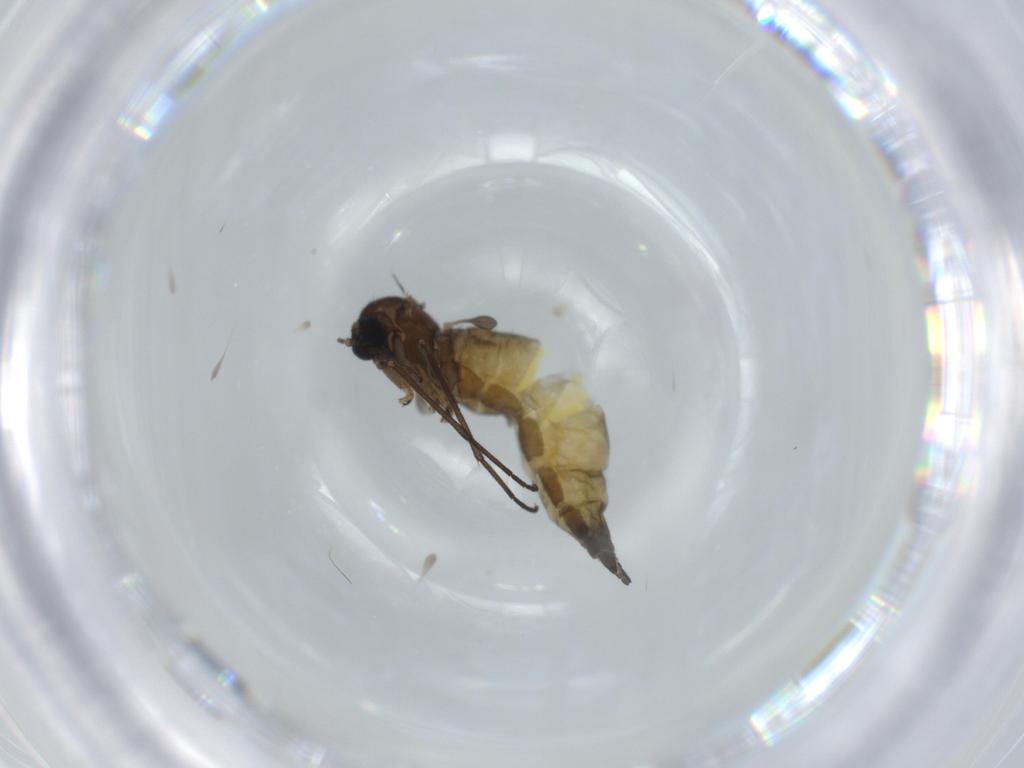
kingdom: Animalia
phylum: Arthropoda
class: Insecta
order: Diptera
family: Sciaridae
